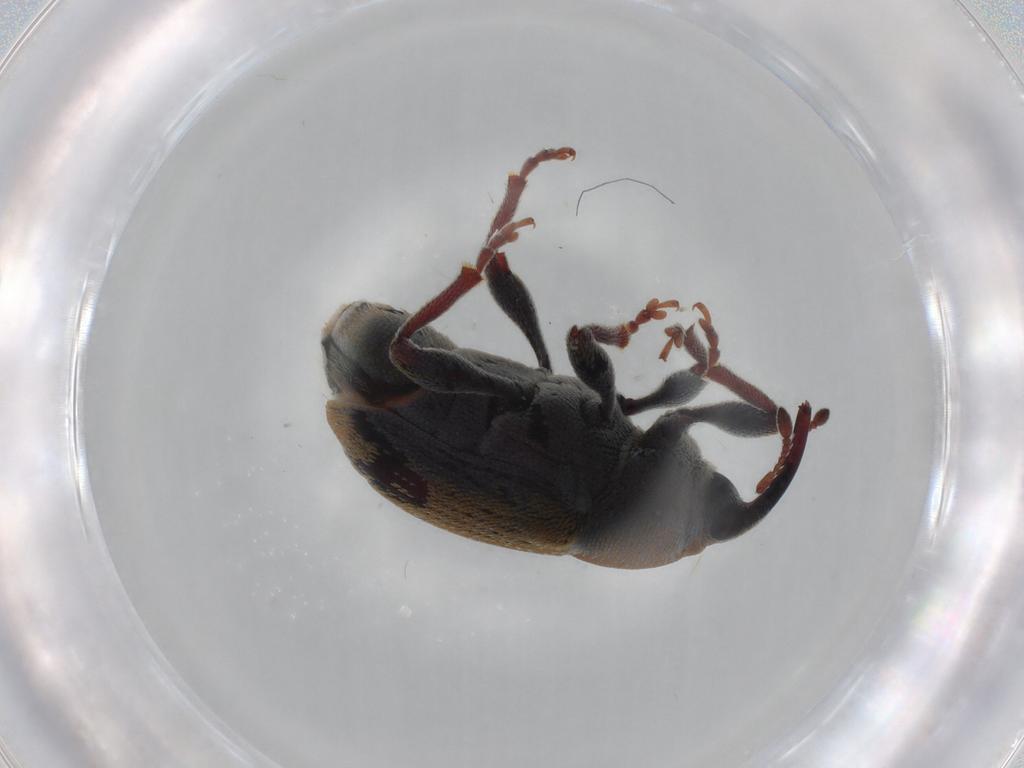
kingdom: Animalia
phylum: Arthropoda
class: Insecta
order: Coleoptera
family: Curculionidae
